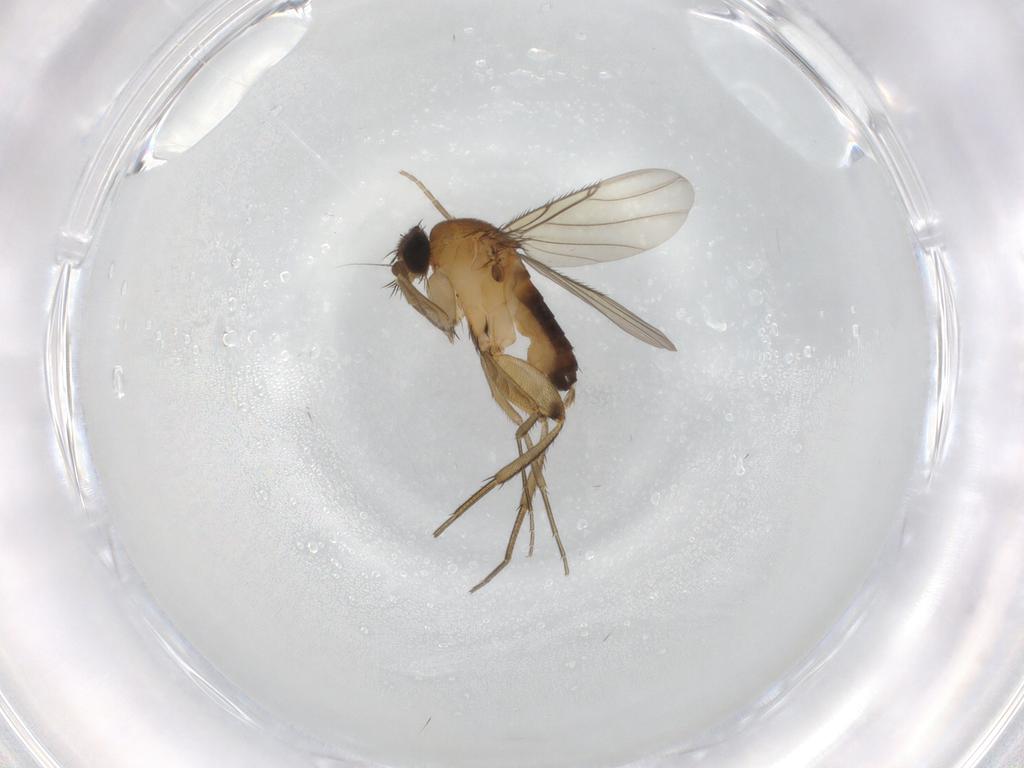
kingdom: Animalia
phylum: Arthropoda
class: Insecta
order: Diptera
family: Phoridae
